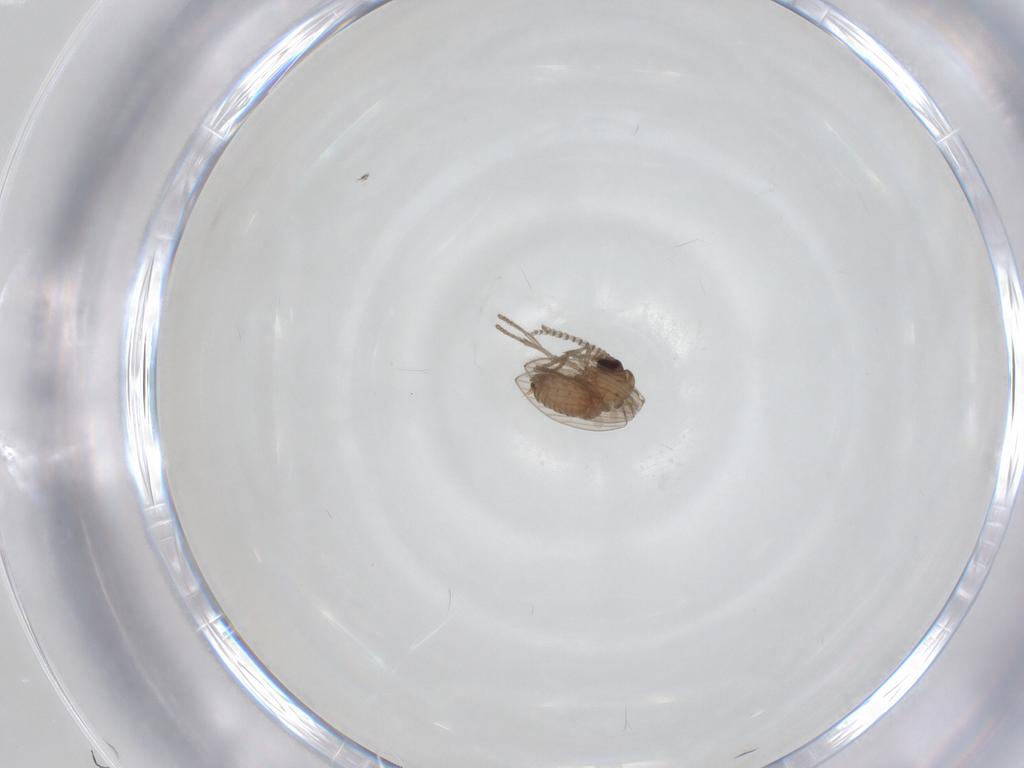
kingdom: Animalia
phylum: Arthropoda
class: Insecta
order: Diptera
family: Psychodidae
